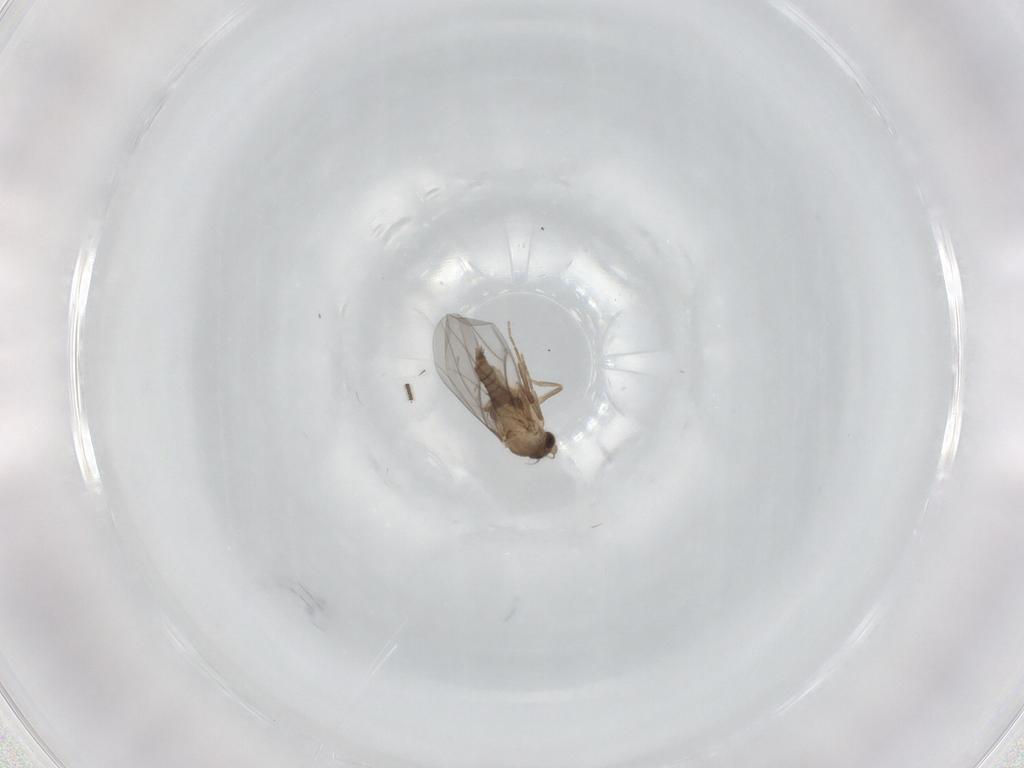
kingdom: Animalia
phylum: Arthropoda
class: Insecta
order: Diptera
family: Sciaridae
